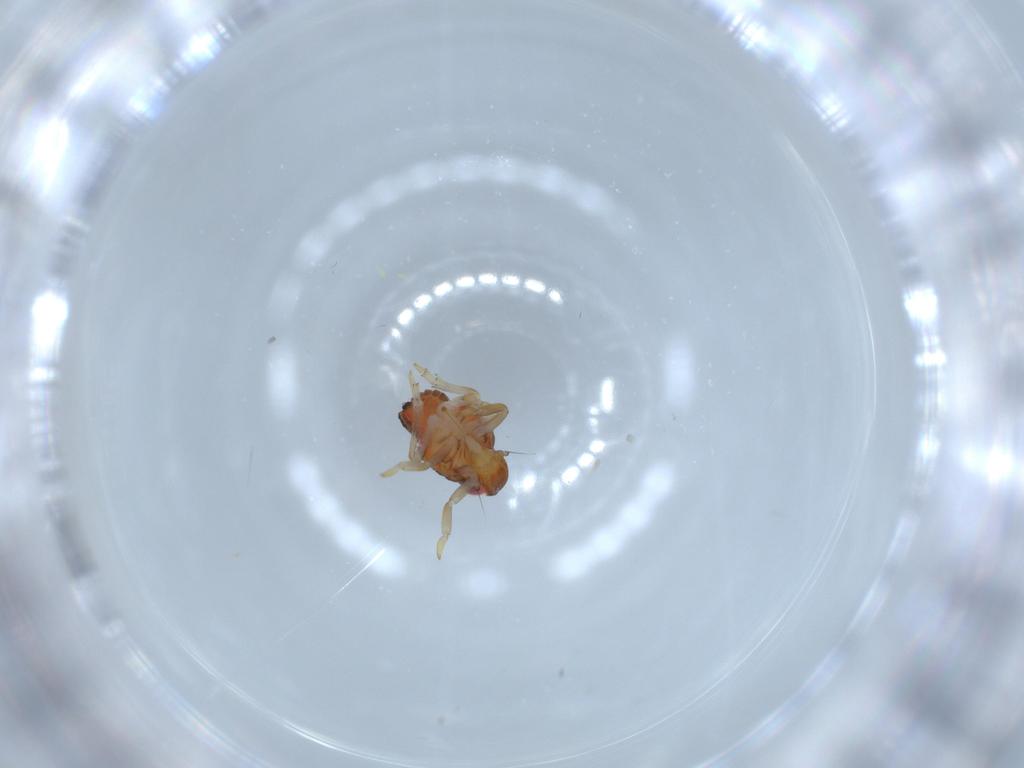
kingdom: Animalia
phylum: Arthropoda
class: Insecta
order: Hemiptera
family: Issidae
